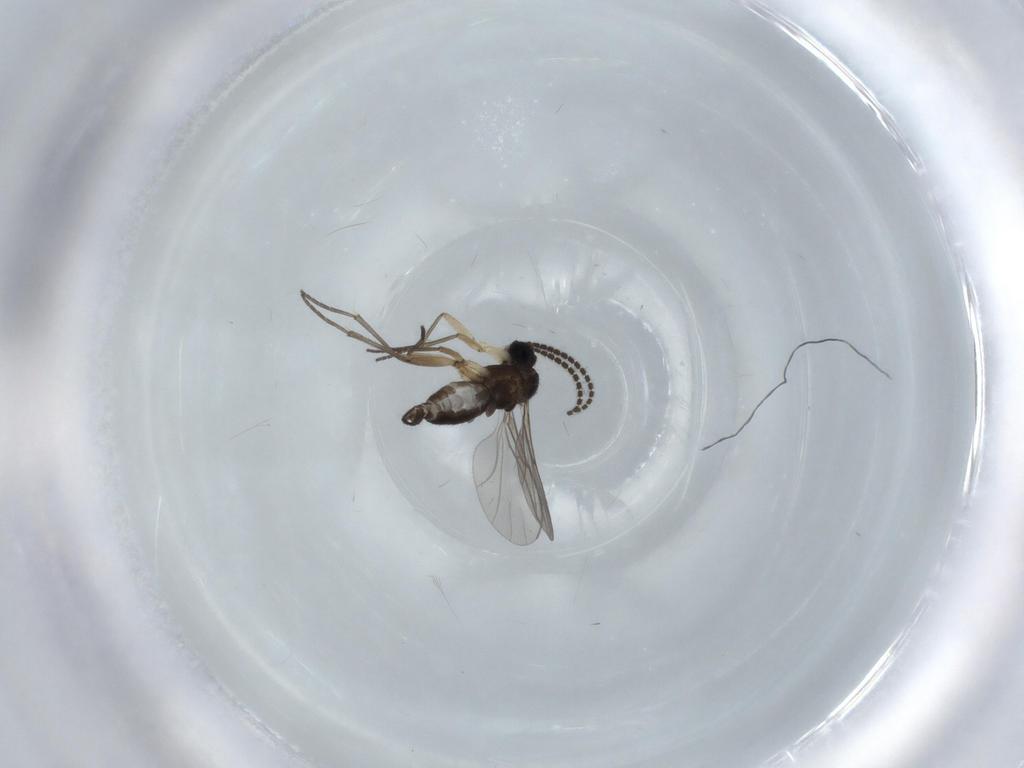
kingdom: Animalia
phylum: Arthropoda
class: Insecta
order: Diptera
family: Sciaridae
